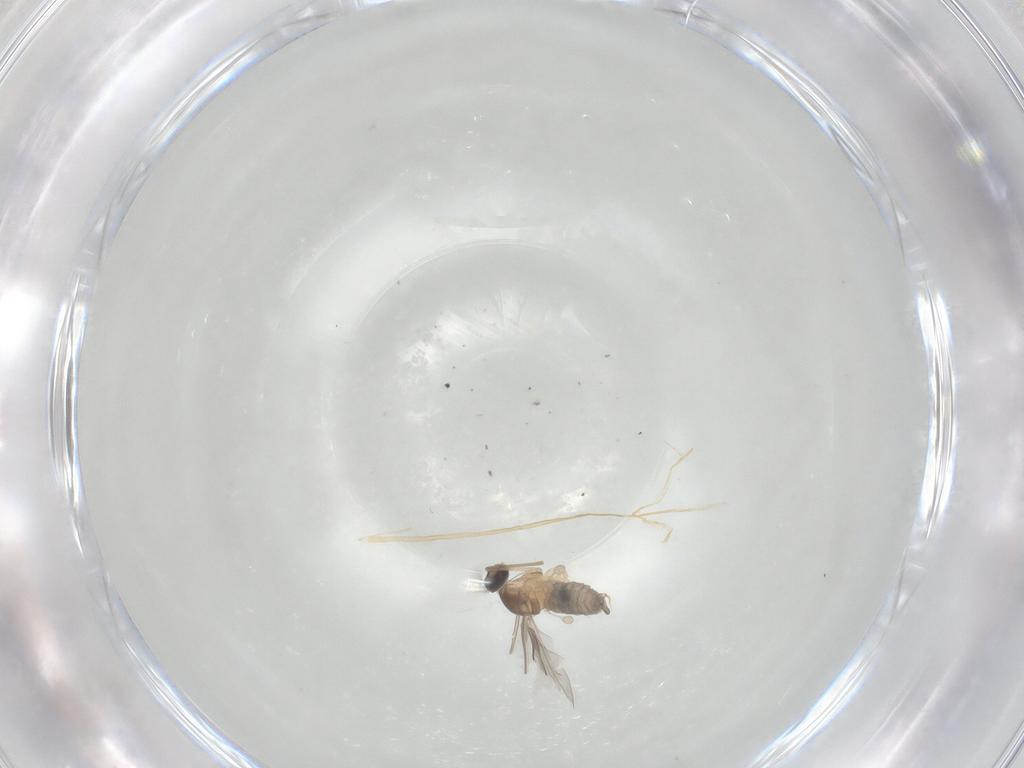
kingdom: Animalia
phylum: Arthropoda
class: Insecta
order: Diptera
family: Cecidomyiidae
